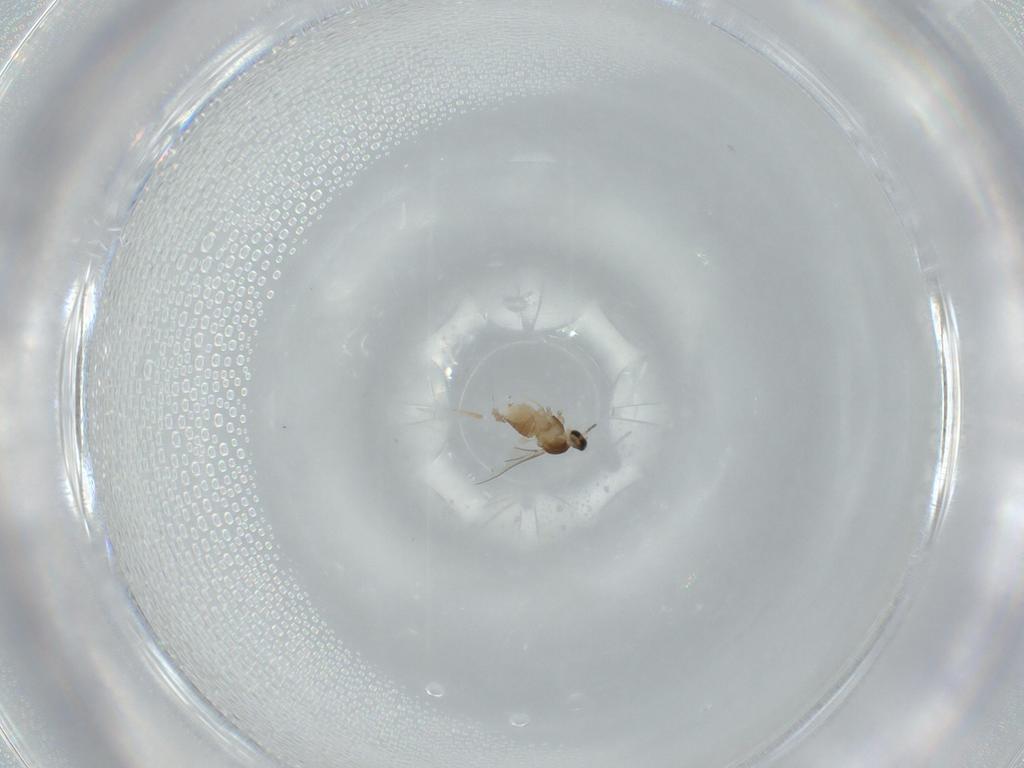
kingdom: Animalia
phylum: Arthropoda
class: Insecta
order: Diptera
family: Cecidomyiidae
